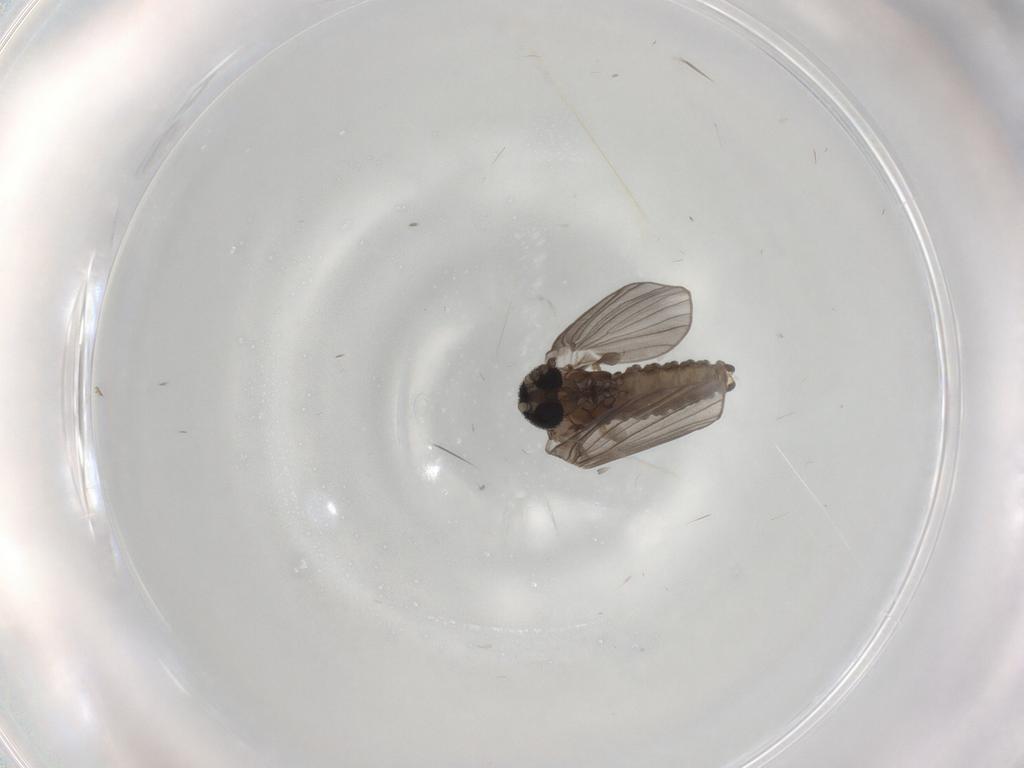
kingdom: Animalia
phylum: Arthropoda
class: Insecta
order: Diptera
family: Psychodidae
